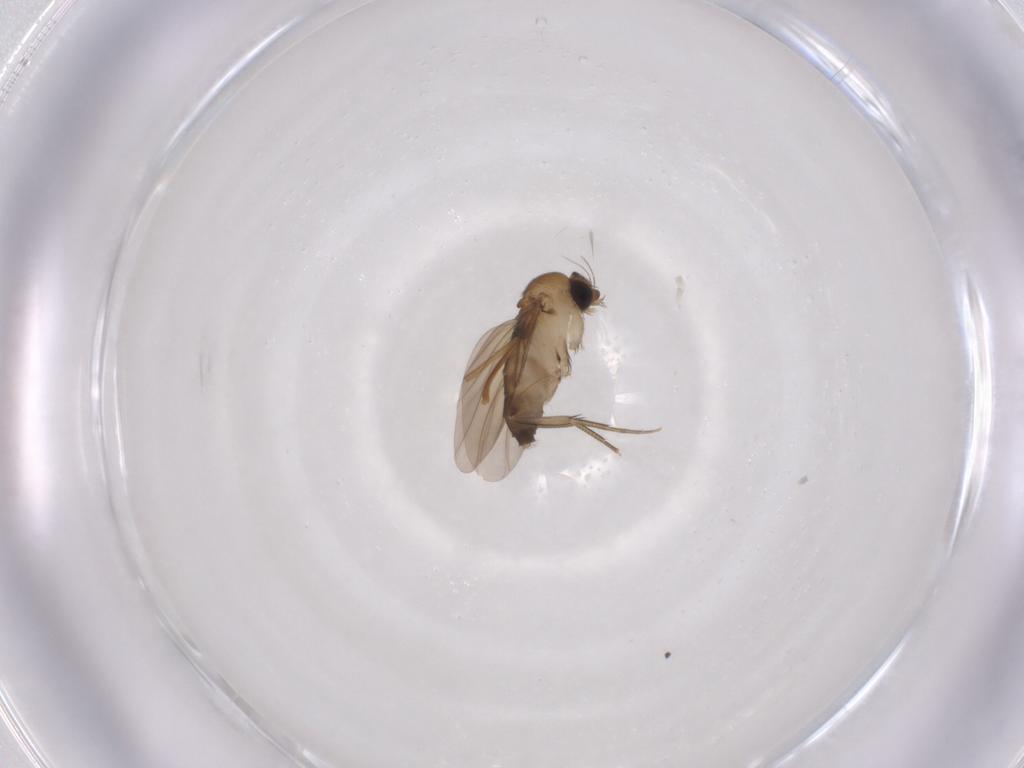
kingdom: Animalia
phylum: Arthropoda
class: Insecta
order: Diptera
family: Phoridae
